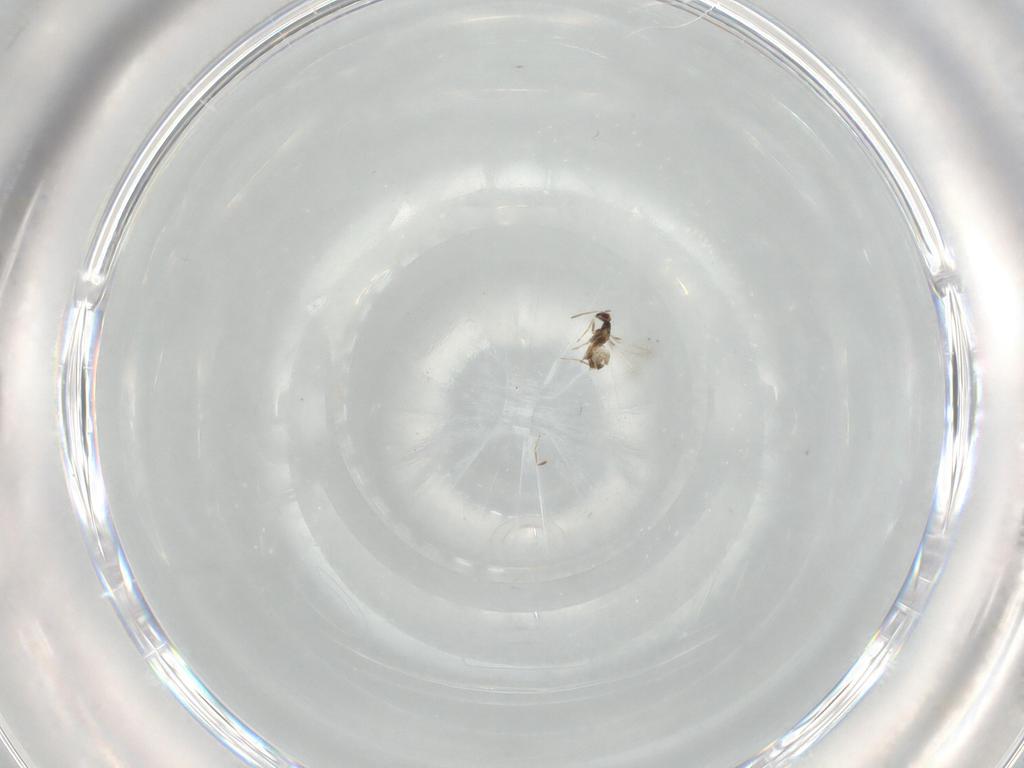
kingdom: Animalia
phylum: Arthropoda
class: Insecta
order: Hymenoptera
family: Mymaridae
